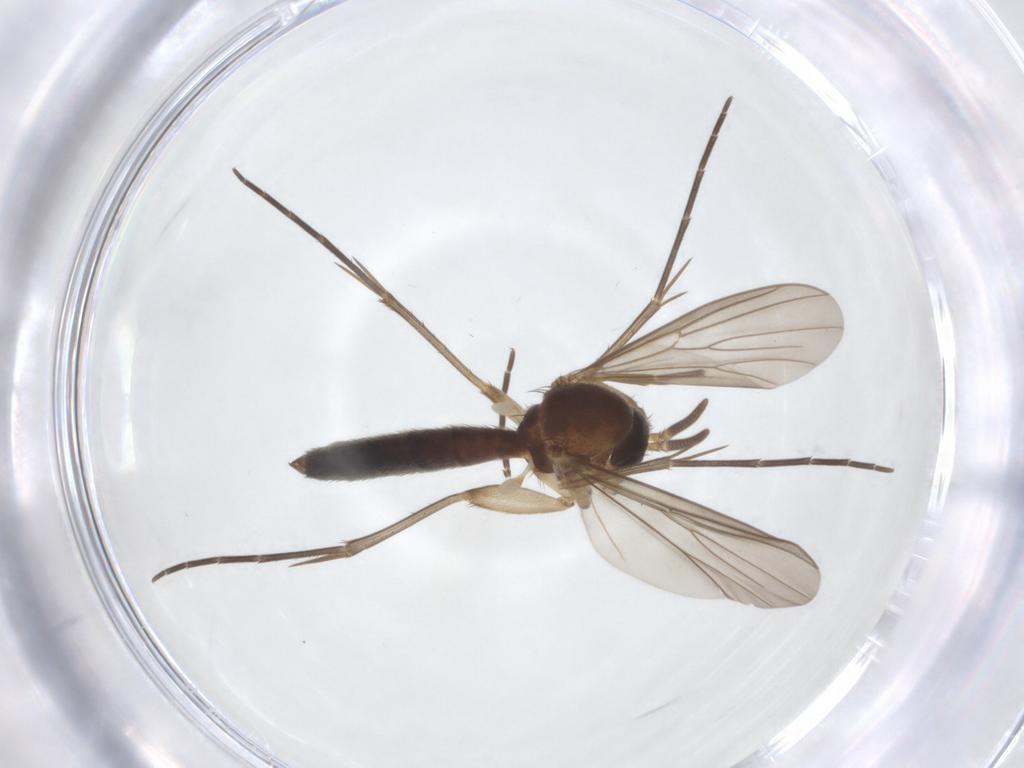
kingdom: Animalia
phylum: Arthropoda
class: Insecta
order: Diptera
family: Mycetophilidae
